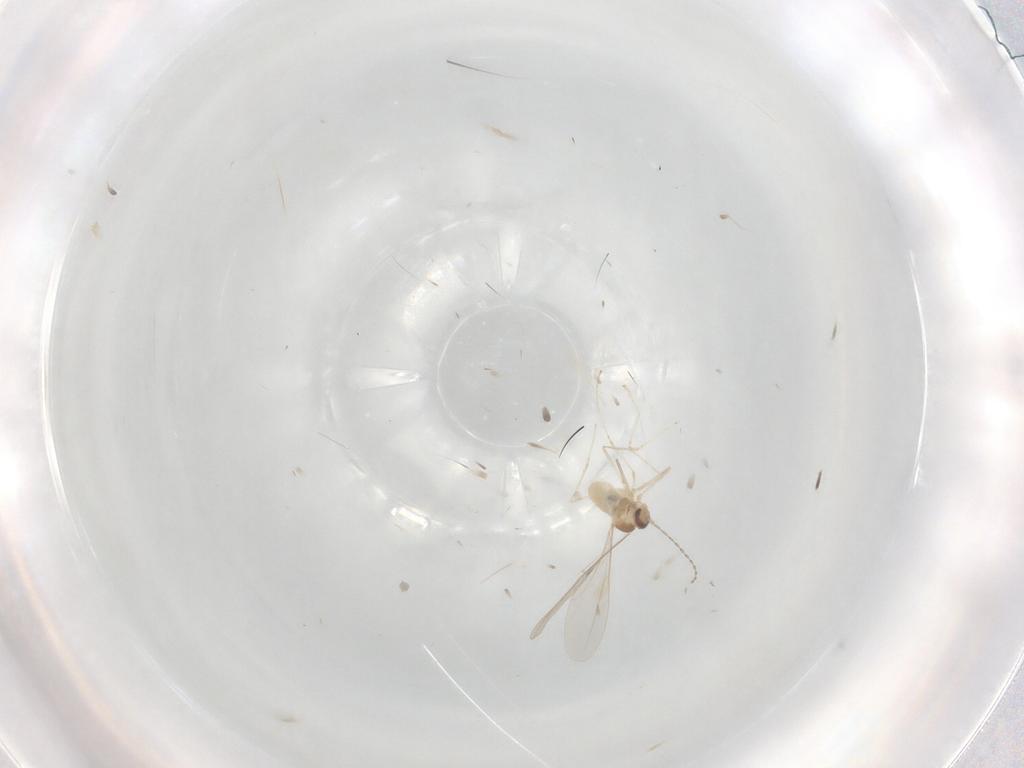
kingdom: Animalia
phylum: Arthropoda
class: Insecta
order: Diptera
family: Cecidomyiidae
